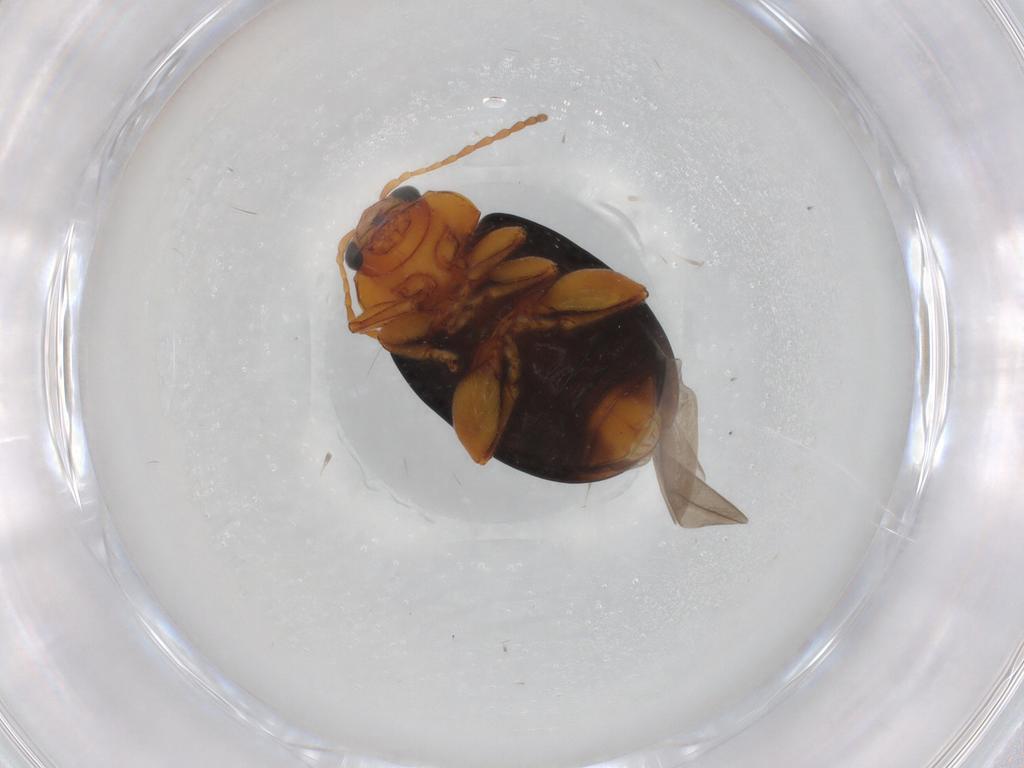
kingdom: Animalia
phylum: Arthropoda
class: Insecta
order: Coleoptera
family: Chrysomelidae
